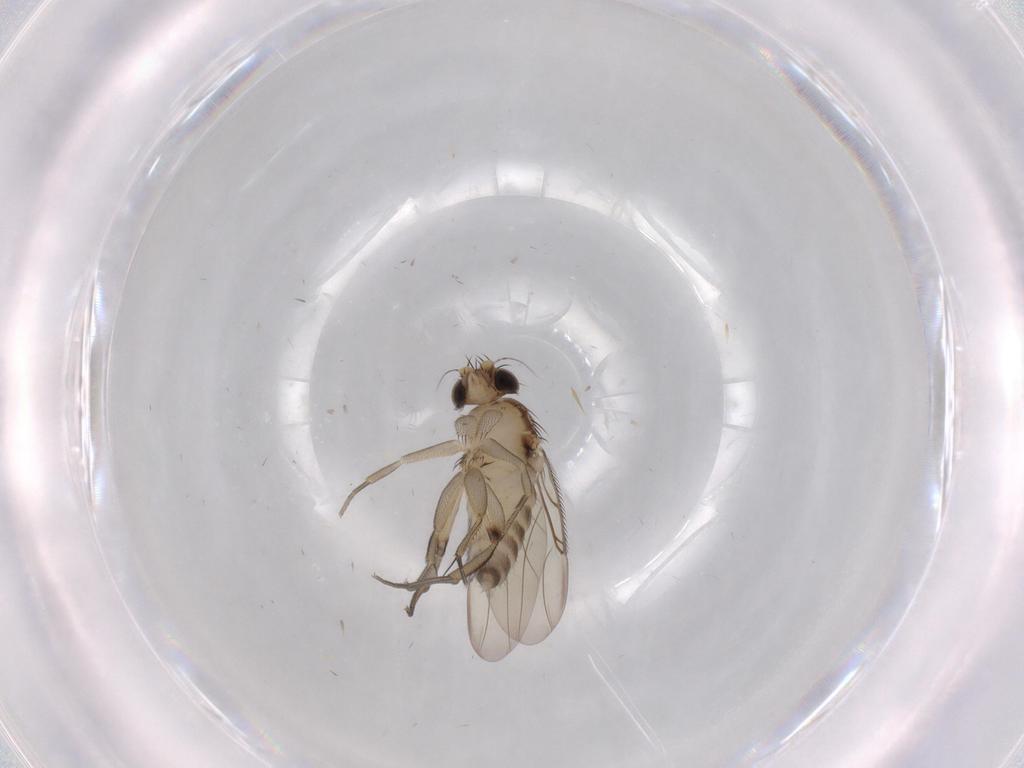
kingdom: Animalia
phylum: Arthropoda
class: Insecta
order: Diptera
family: Phoridae
